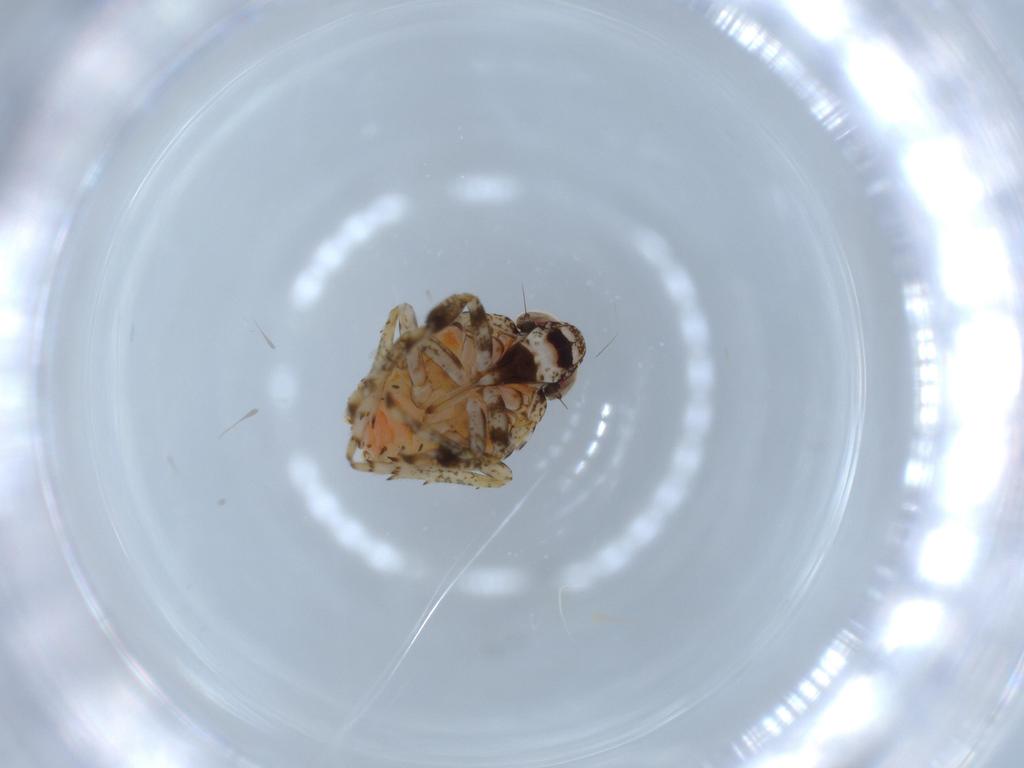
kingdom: Animalia
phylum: Arthropoda
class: Insecta
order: Hemiptera
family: Issidae
